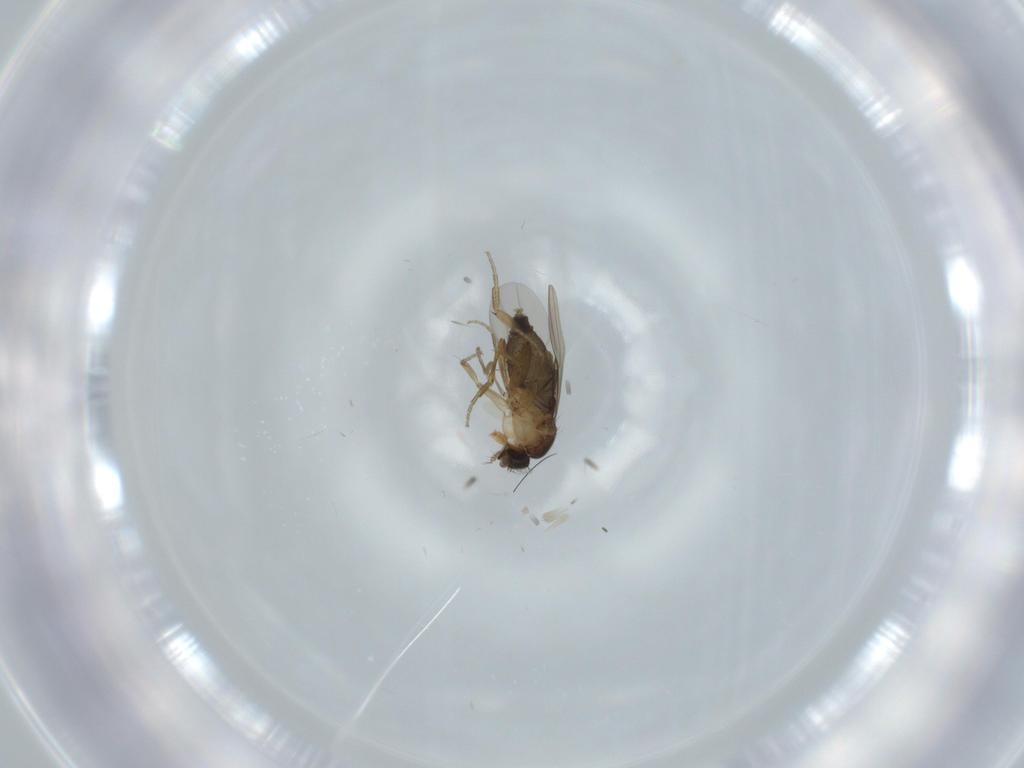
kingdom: Animalia
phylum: Arthropoda
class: Insecta
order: Diptera
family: Phoridae
